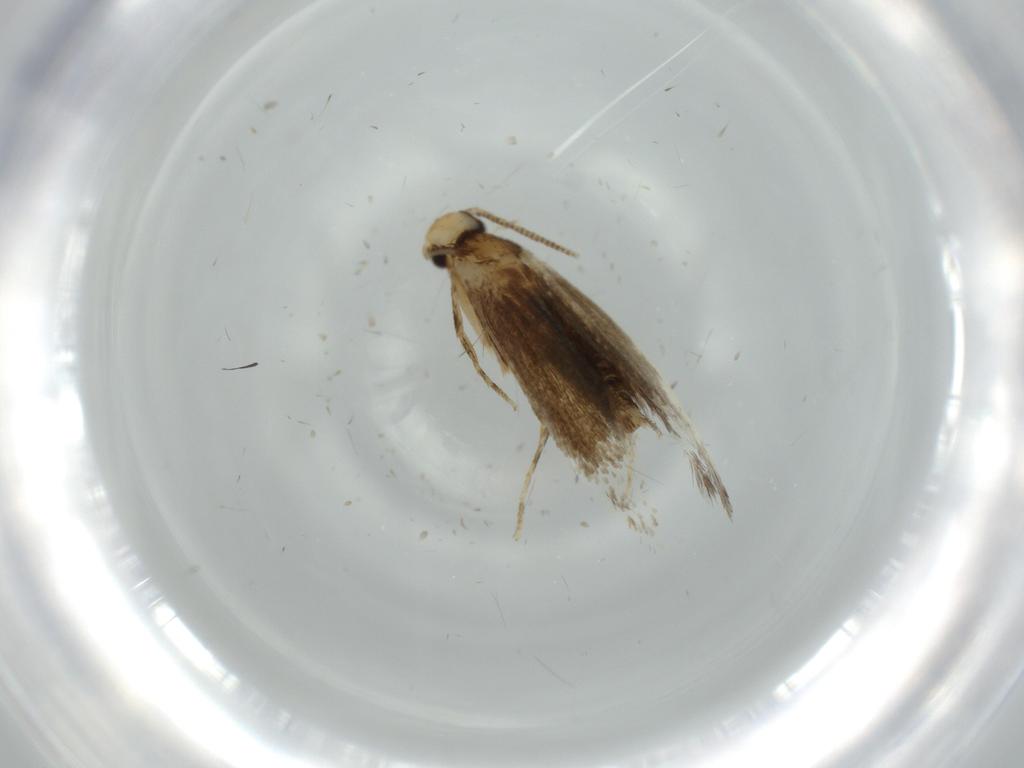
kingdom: Animalia
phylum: Arthropoda
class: Insecta
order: Lepidoptera
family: Tineidae
